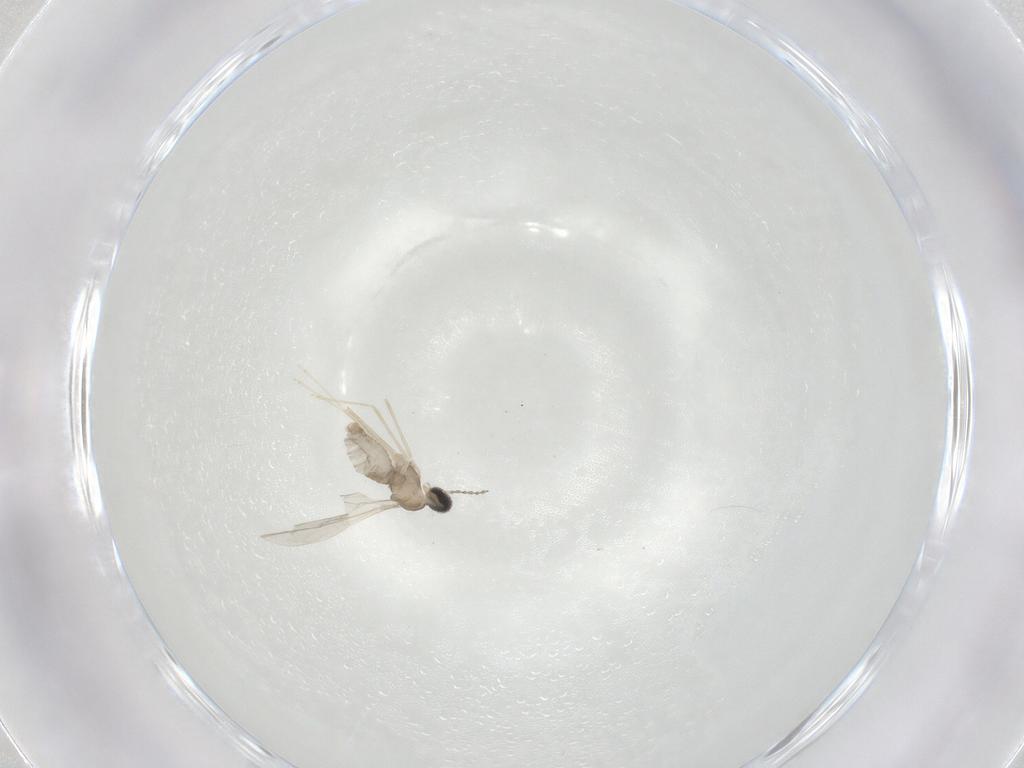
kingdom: Animalia
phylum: Arthropoda
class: Insecta
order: Diptera
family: Cecidomyiidae
